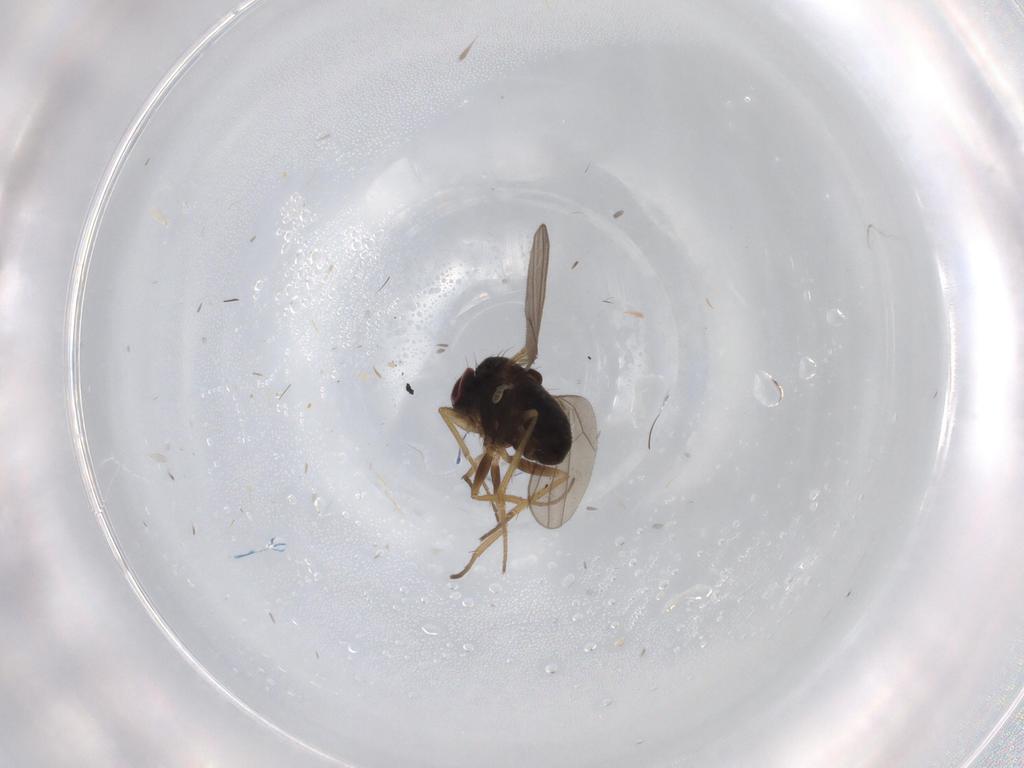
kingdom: Animalia
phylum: Arthropoda
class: Insecta
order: Diptera
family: Dolichopodidae
